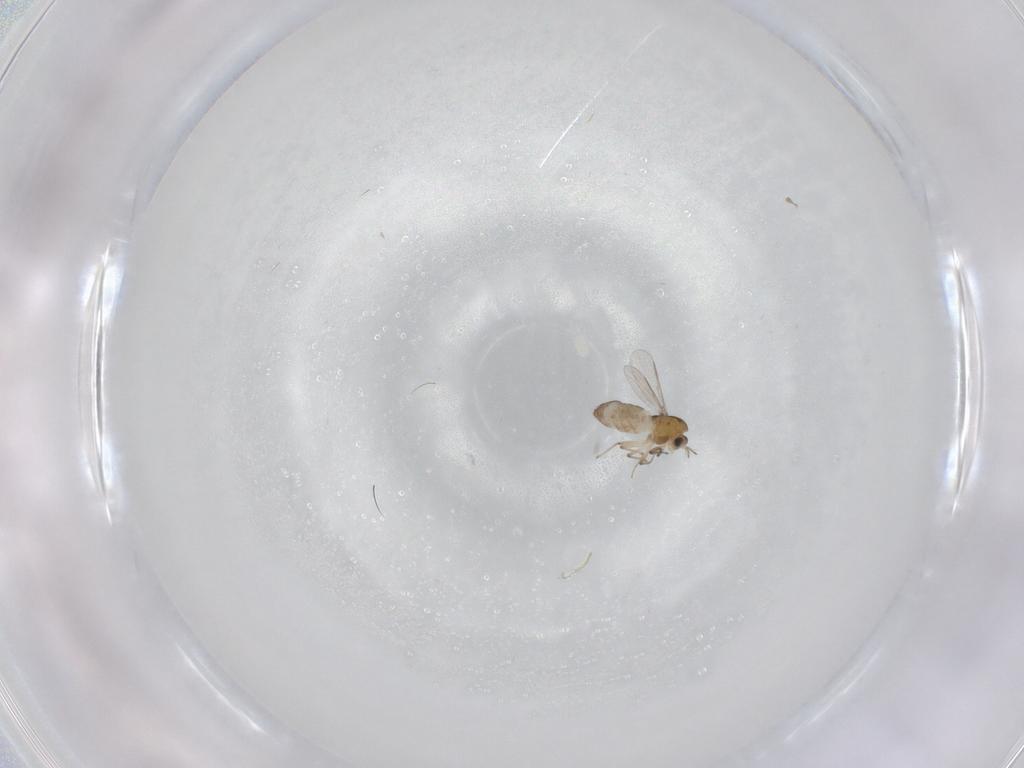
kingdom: Animalia
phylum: Arthropoda
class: Insecta
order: Diptera
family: Chironomidae
